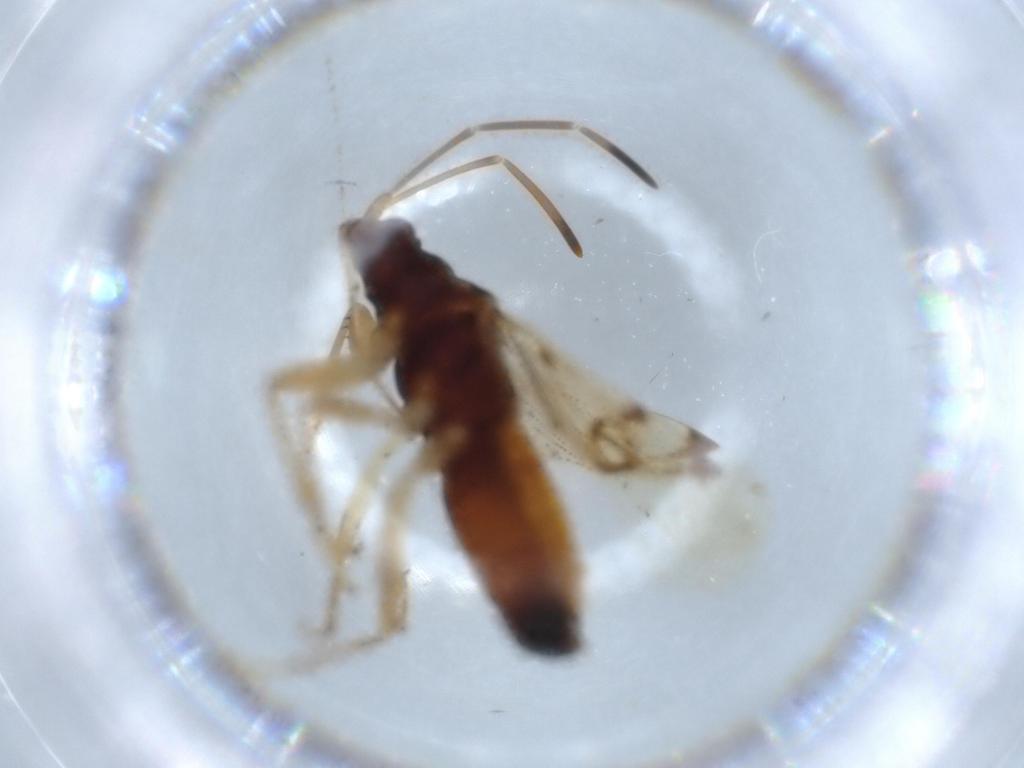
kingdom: Animalia
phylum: Arthropoda
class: Insecta
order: Hemiptera
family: Rhyparochromidae
